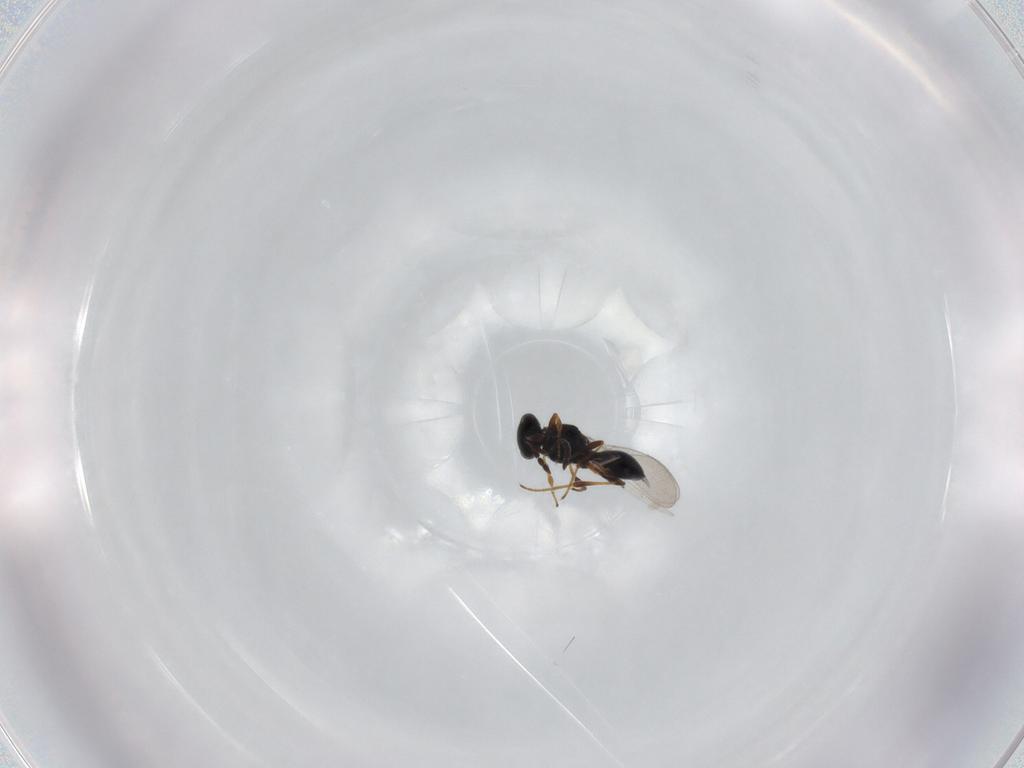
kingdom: Animalia
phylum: Arthropoda
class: Insecta
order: Hymenoptera
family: Platygastridae
